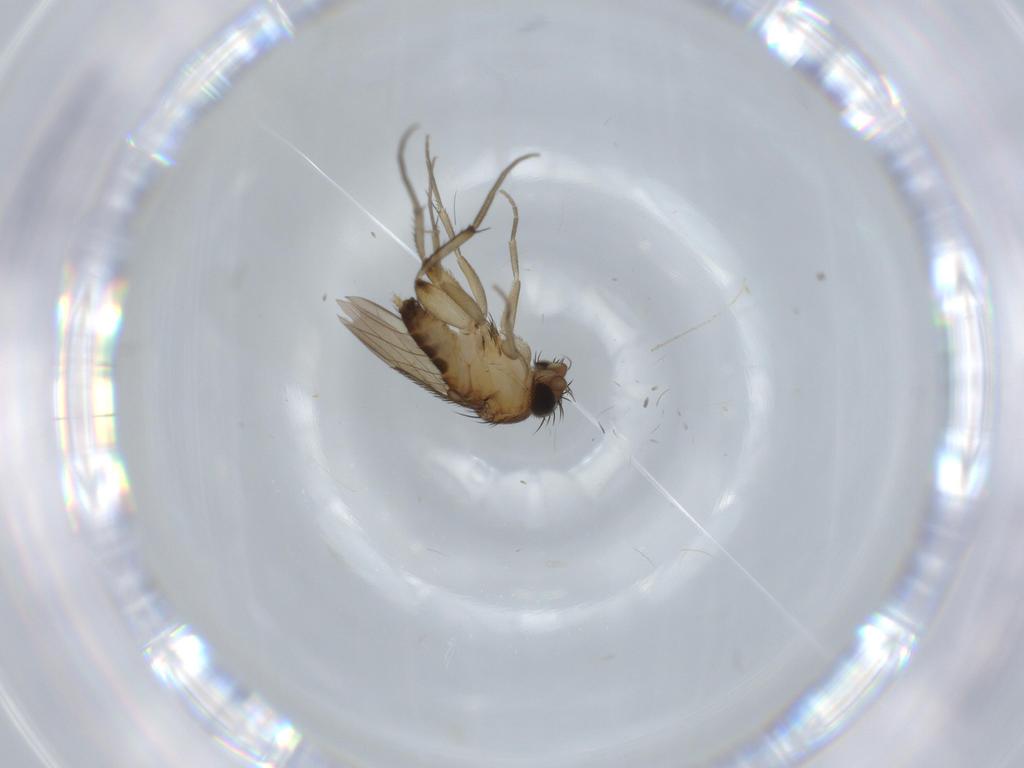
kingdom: Animalia
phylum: Arthropoda
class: Insecta
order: Diptera
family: Phoridae
